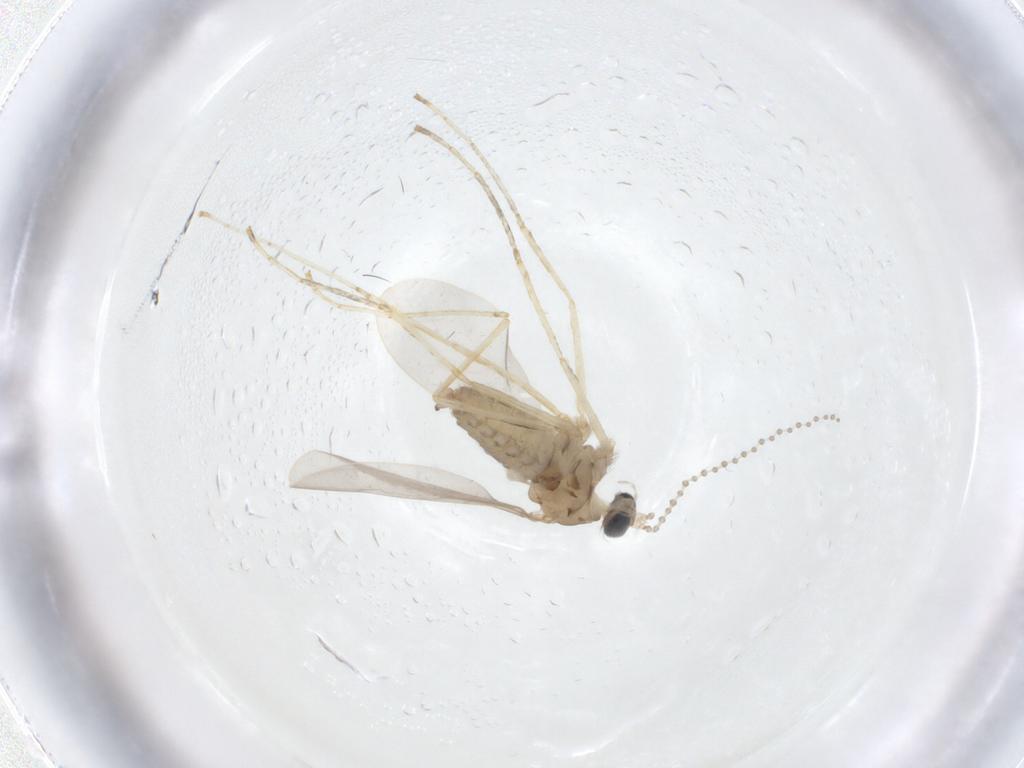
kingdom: Animalia
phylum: Arthropoda
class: Insecta
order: Diptera
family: Cecidomyiidae
